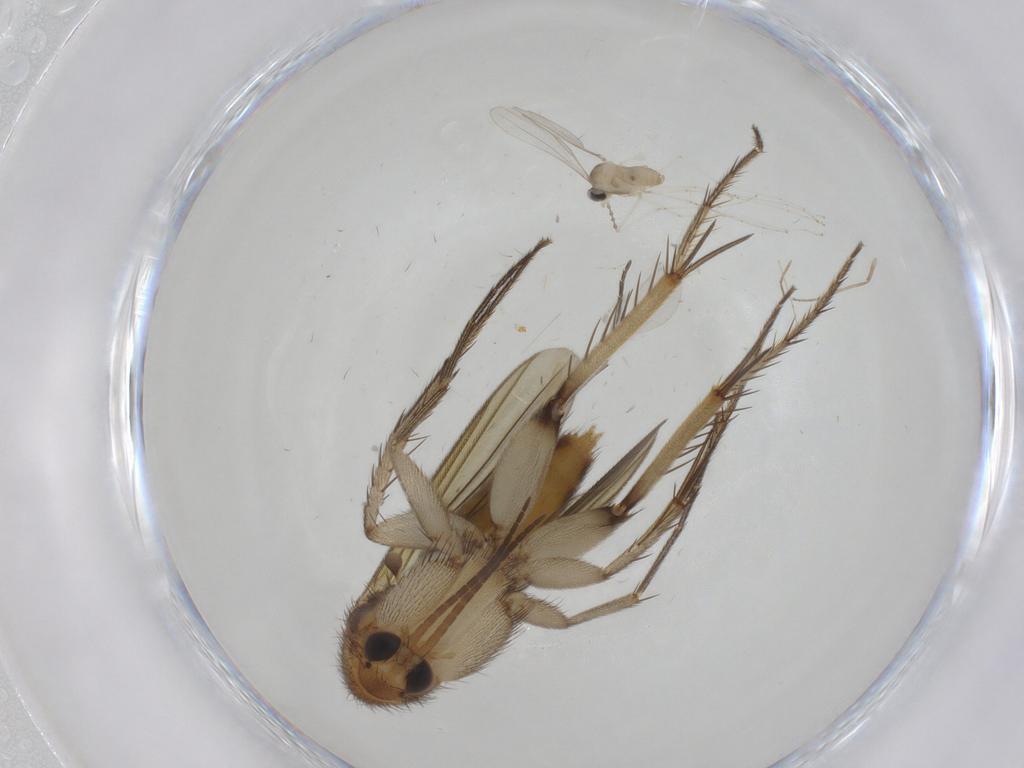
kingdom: Animalia
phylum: Arthropoda
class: Insecta
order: Diptera
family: Mycetophilidae
